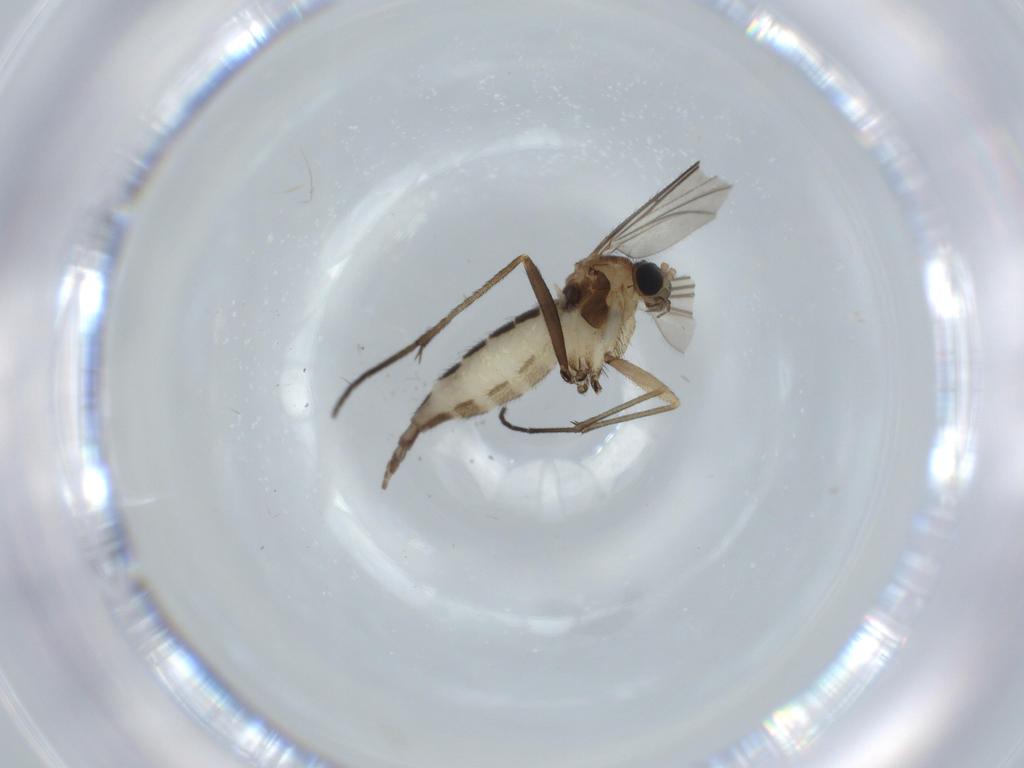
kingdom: Animalia
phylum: Arthropoda
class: Insecta
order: Diptera
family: Sciaridae
